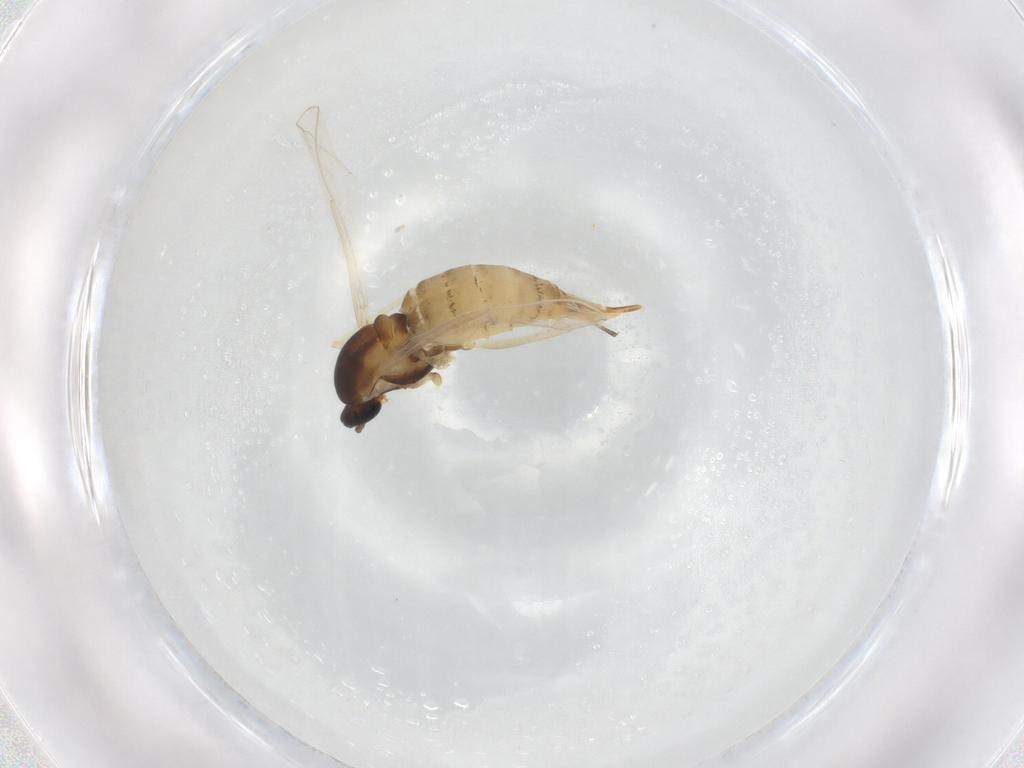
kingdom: Animalia
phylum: Arthropoda
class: Insecta
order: Diptera
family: Cecidomyiidae
